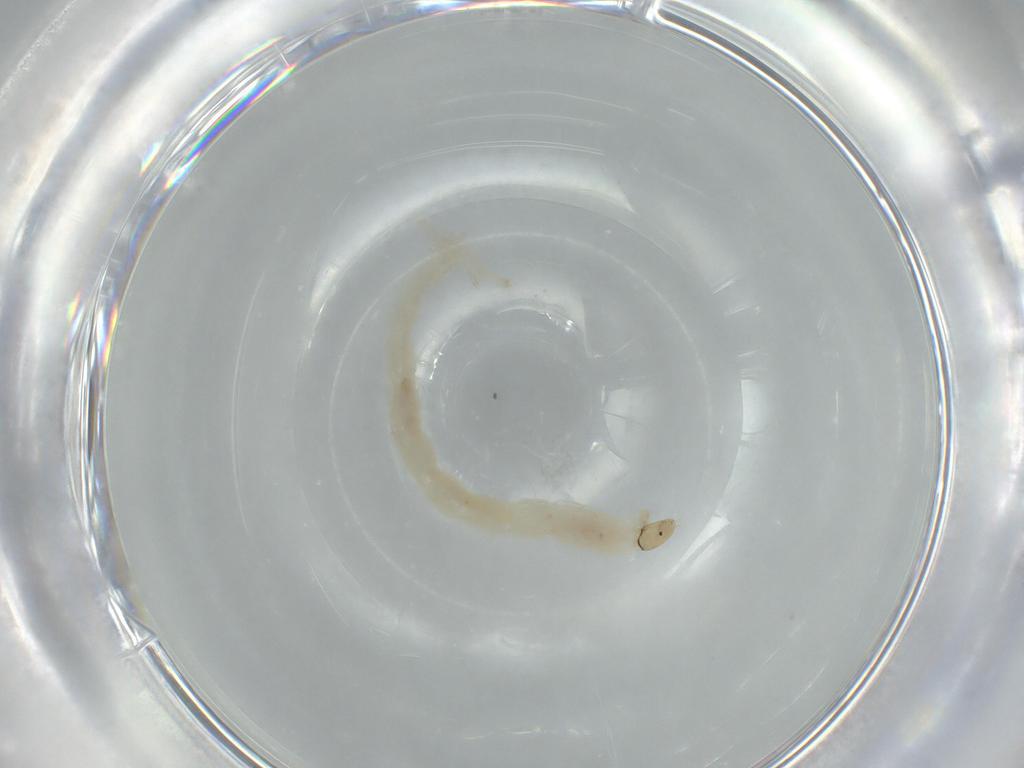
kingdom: Animalia
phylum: Arthropoda
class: Insecta
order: Diptera
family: Chironomidae
